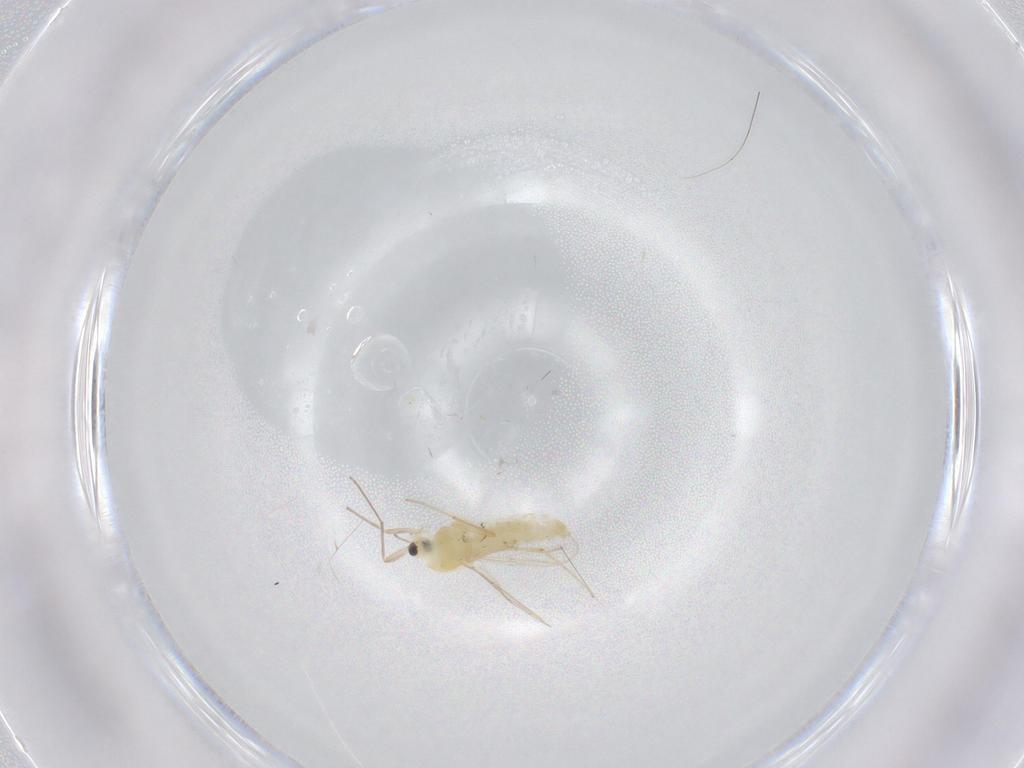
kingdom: Animalia
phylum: Arthropoda
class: Insecta
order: Diptera
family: Chironomidae
